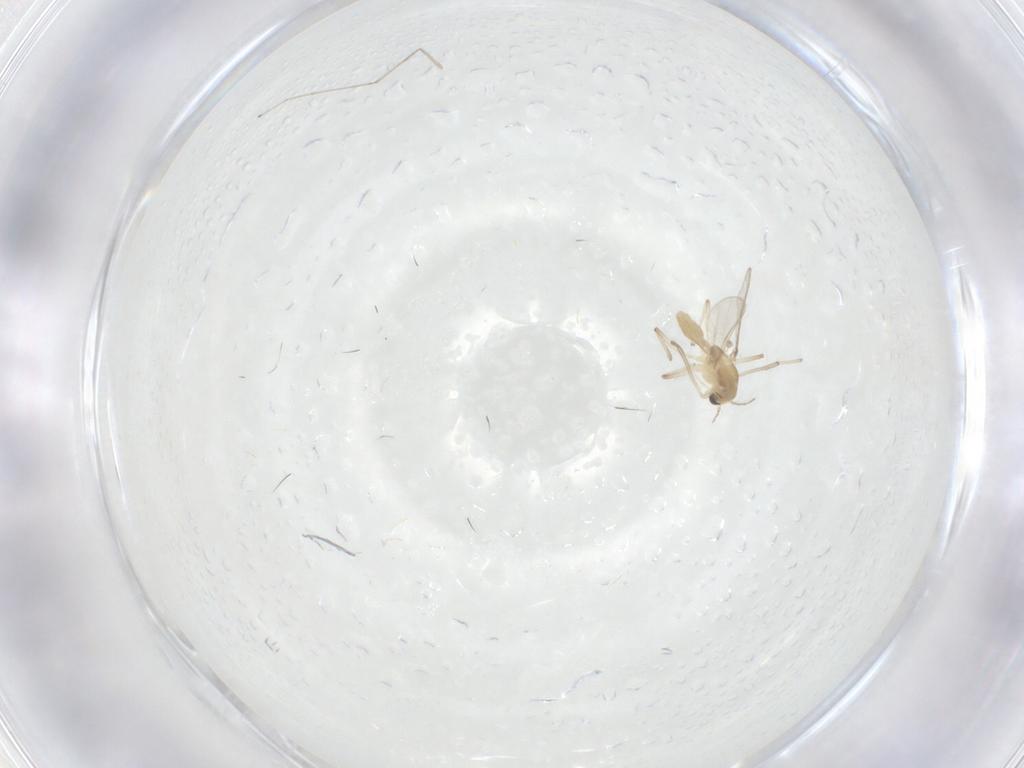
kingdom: Animalia
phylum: Arthropoda
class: Insecta
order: Diptera
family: Cecidomyiidae
